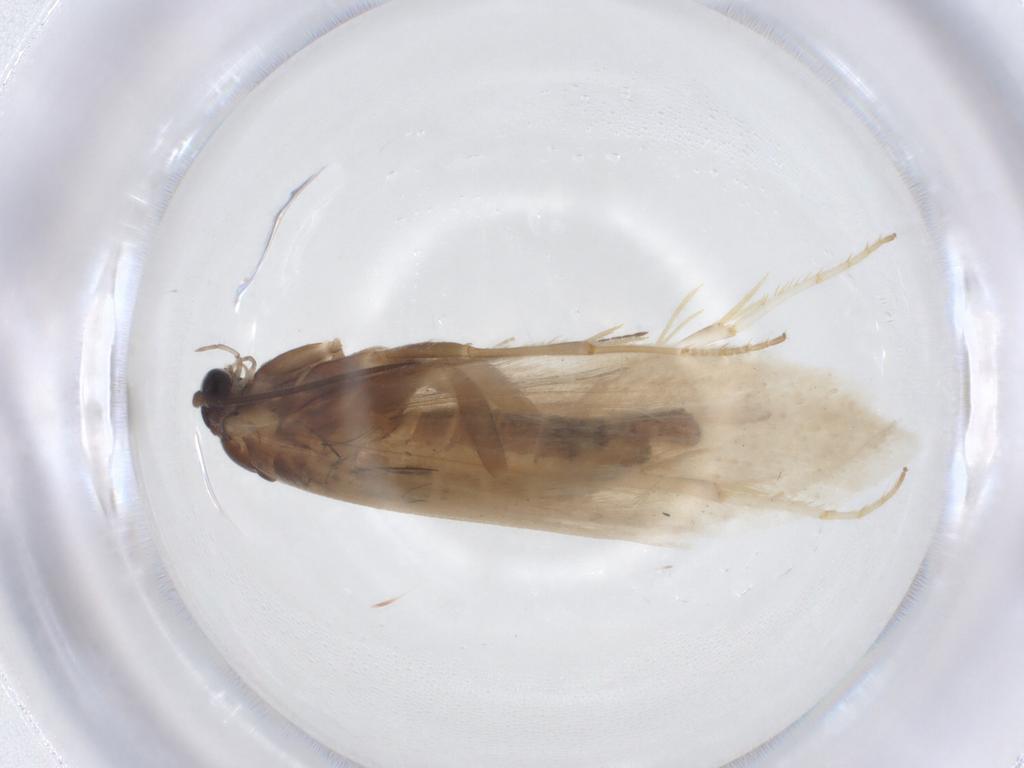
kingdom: Animalia
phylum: Arthropoda
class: Insecta
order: Lepidoptera
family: Tridentaformidae
